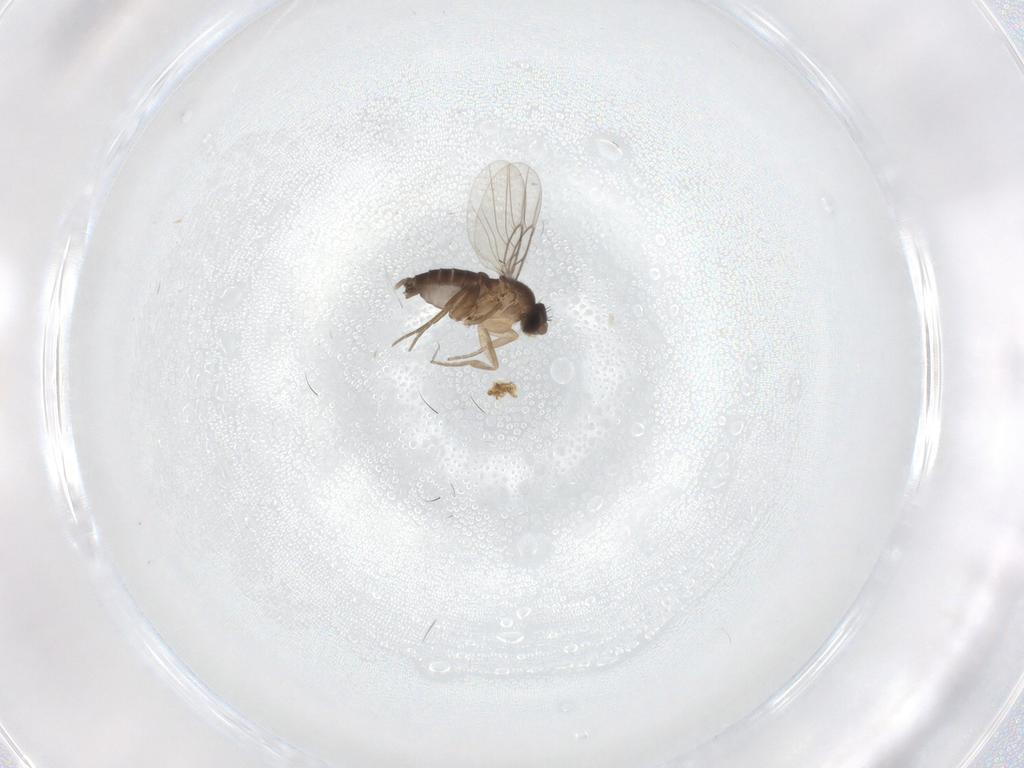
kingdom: Animalia
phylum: Arthropoda
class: Insecta
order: Diptera
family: Phoridae
